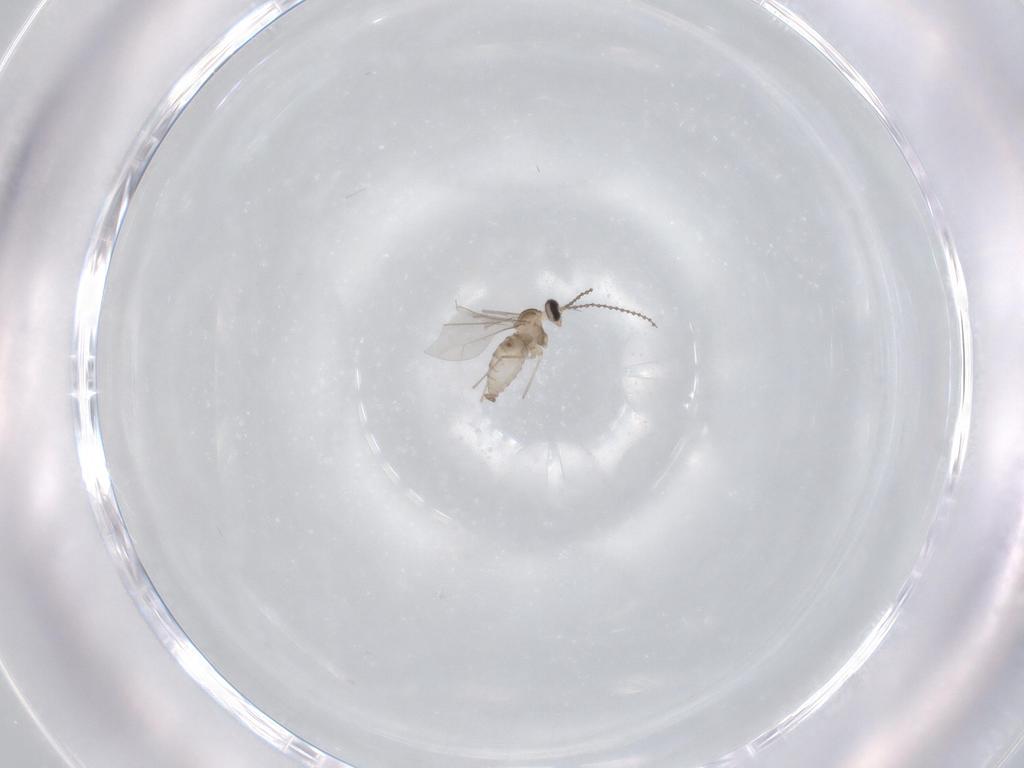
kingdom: Animalia
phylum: Arthropoda
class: Insecta
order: Diptera
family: Cecidomyiidae
